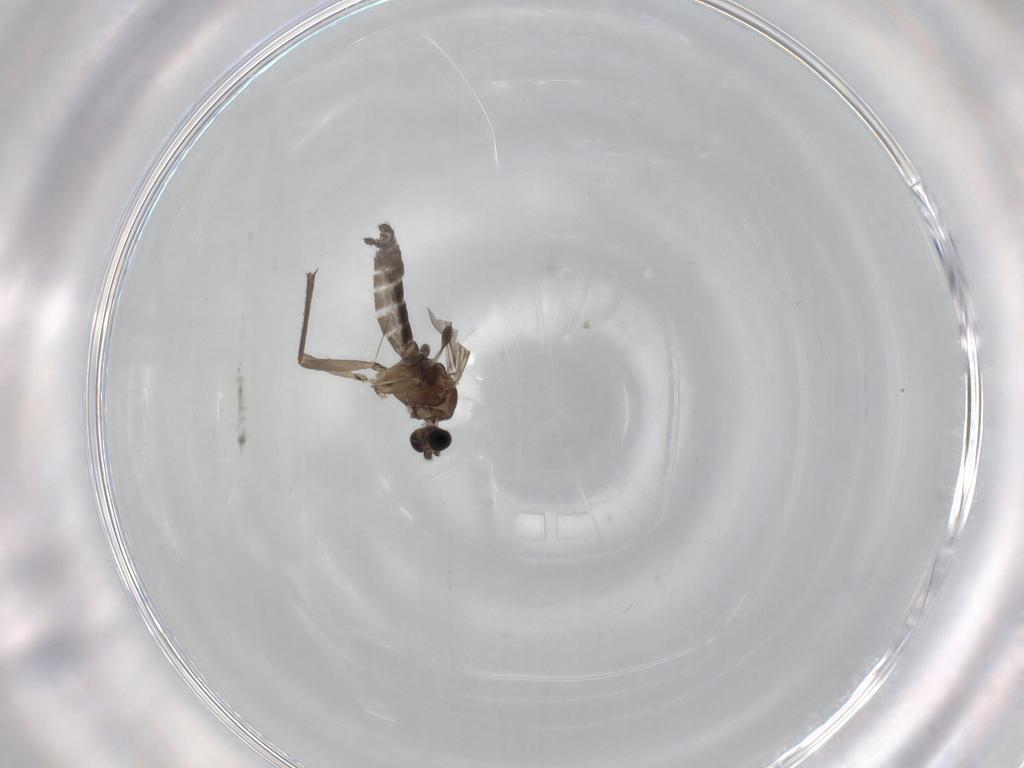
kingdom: Animalia
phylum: Arthropoda
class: Insecta
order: Diptera
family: Sciaridae
